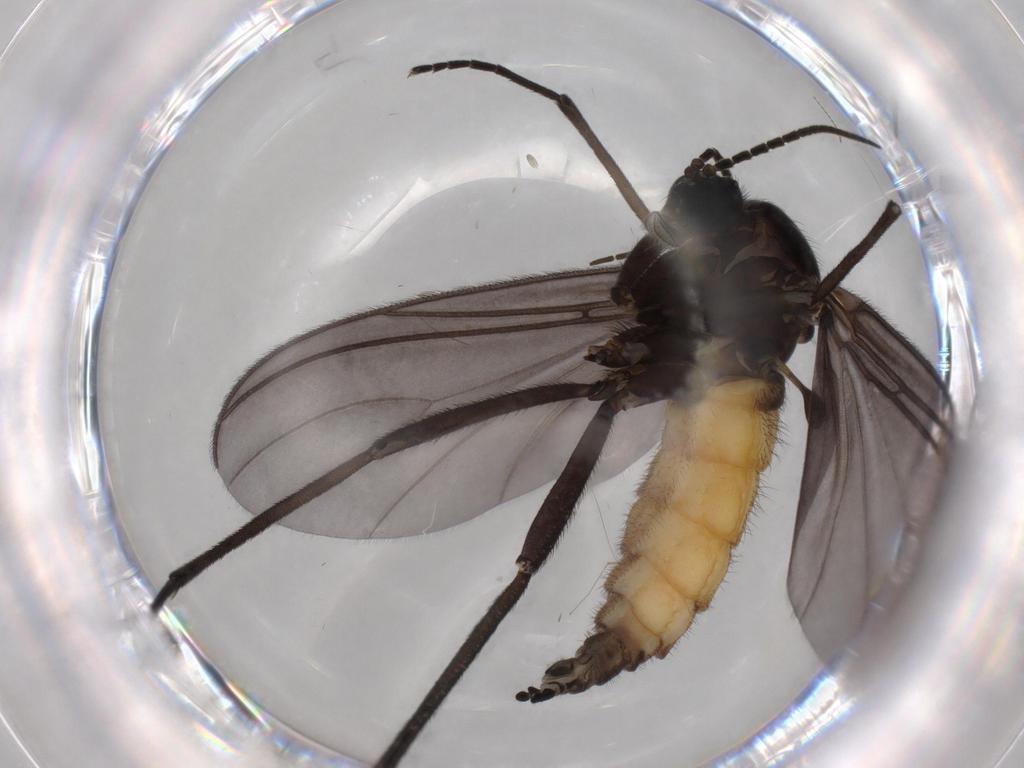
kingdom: Animalia
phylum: Arthropoda
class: Insecta
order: Diptera
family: Cecidomyiidae
